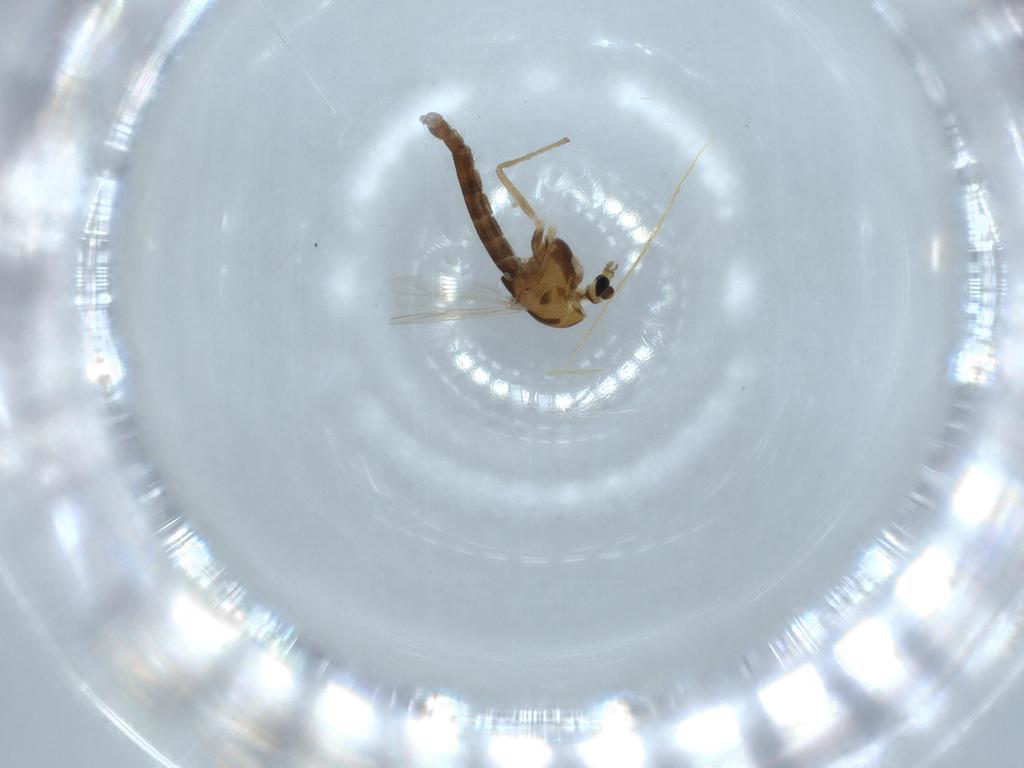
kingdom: Animalia
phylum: Arthropoda
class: Insecta
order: Diptera
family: Chironomidae
